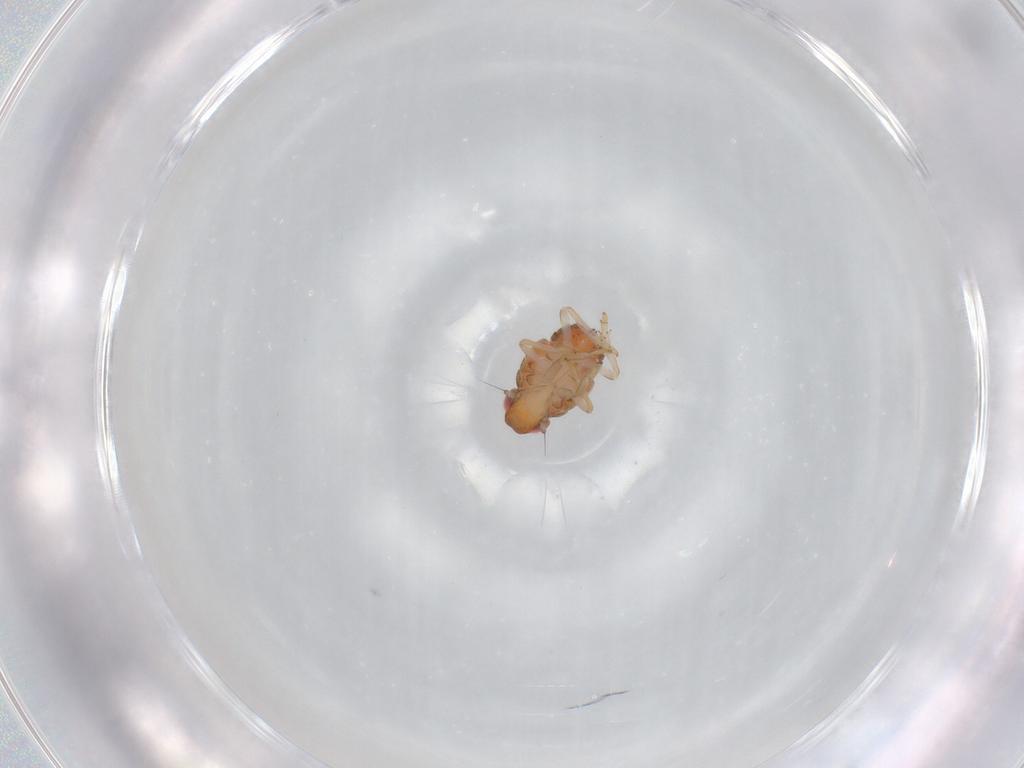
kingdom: Animalia
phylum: Arthropoda
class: Insecta
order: Hemiptera
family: Issidae
